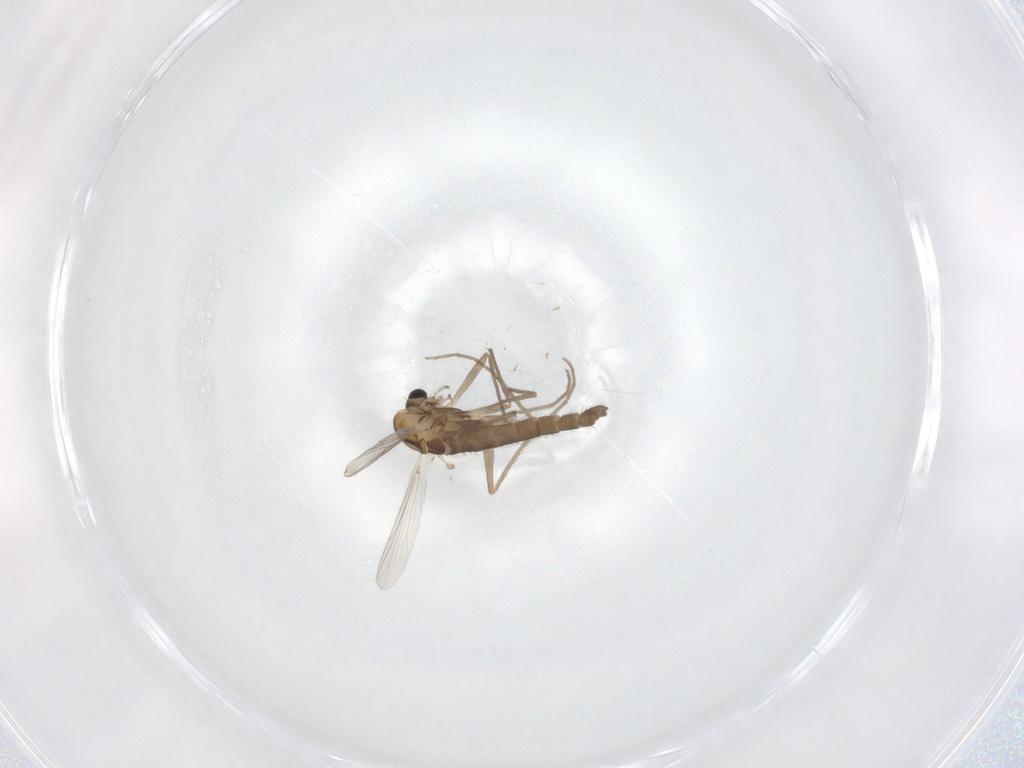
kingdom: Animalia
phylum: Arthropoda
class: Insecta
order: Diptera
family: Chironomidae
